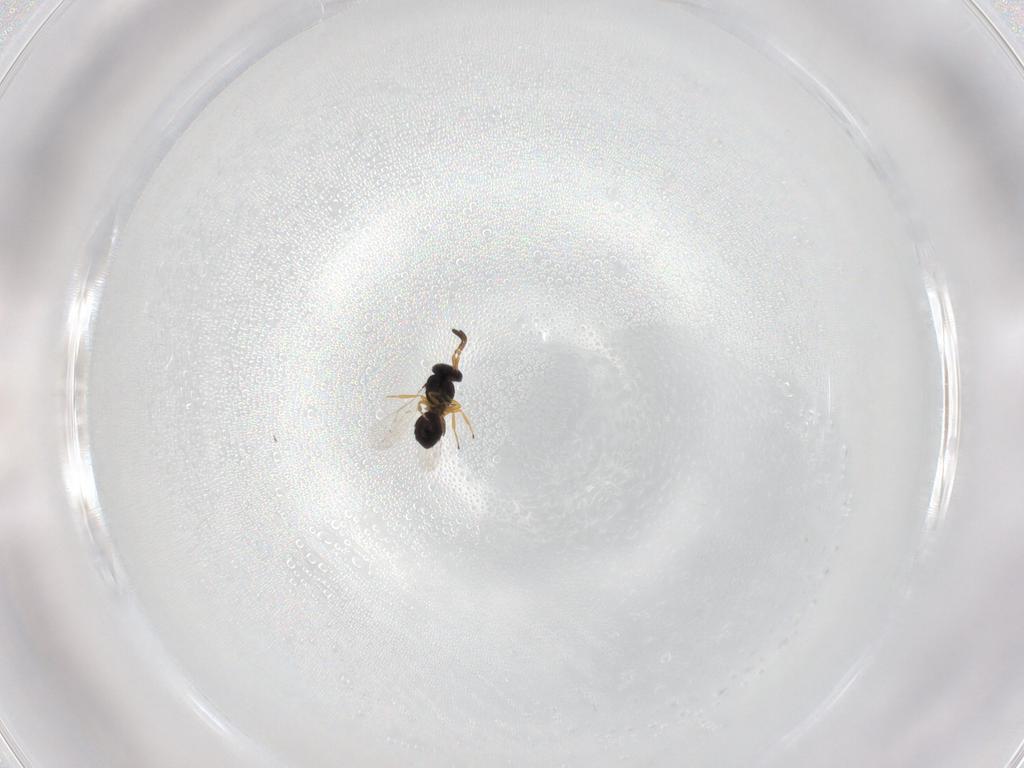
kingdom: Animalia
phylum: Arthropoda
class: Insecta
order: Hymenoptera
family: Scelionidae
